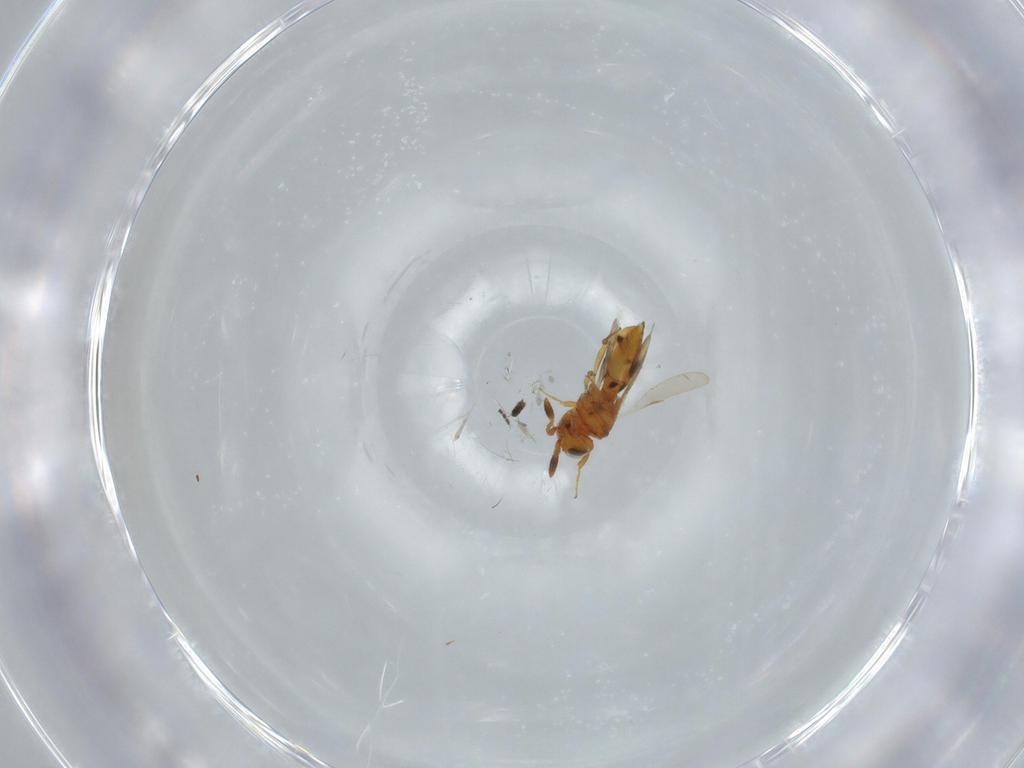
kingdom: Animalia
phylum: Arthropoda
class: Insecta
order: Hymenoptera
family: Scelionidae
